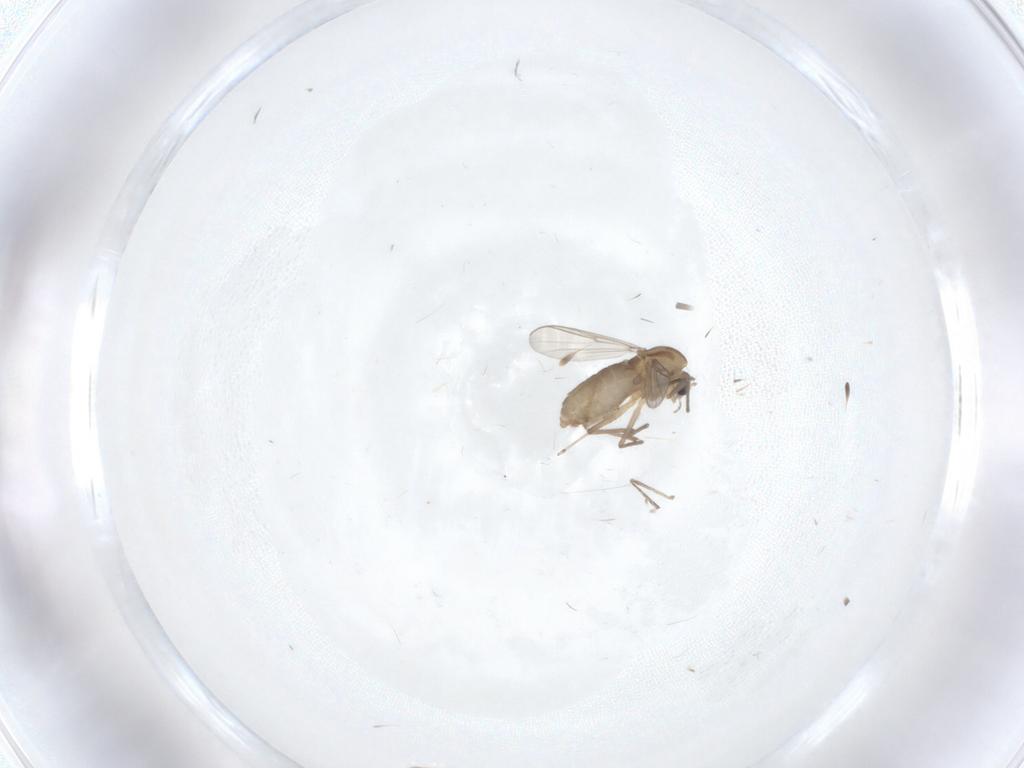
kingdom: Animalia
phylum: Arthropoda
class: Insecta
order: Diptera
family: Chironomidae
